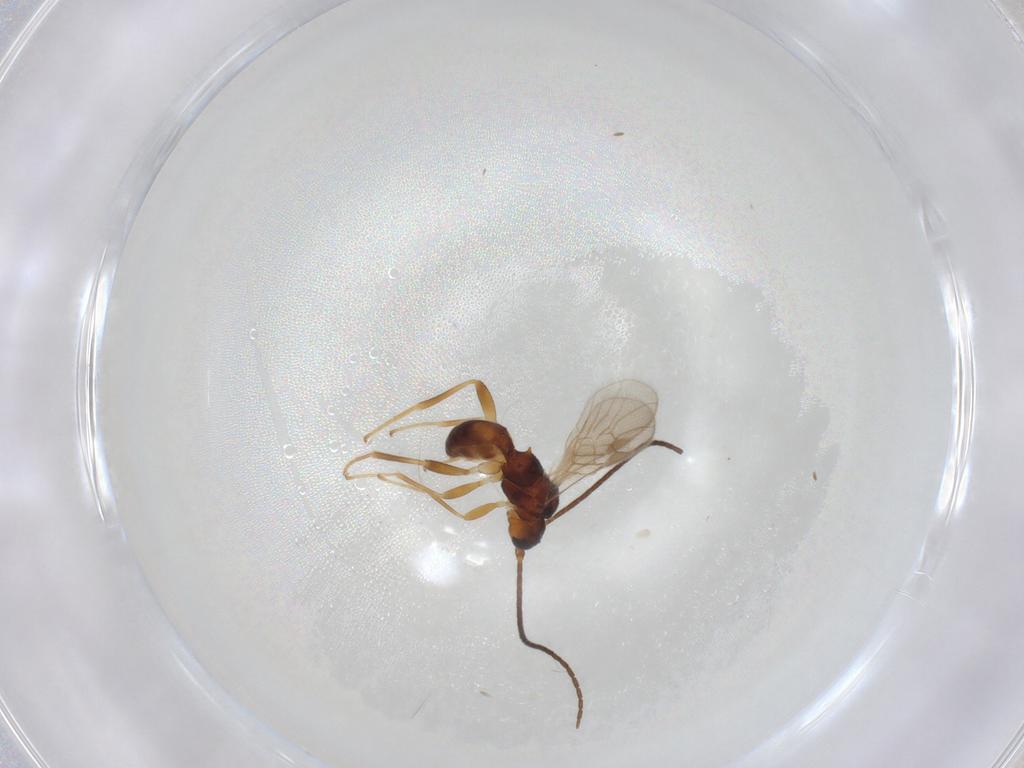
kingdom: Animalia
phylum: Arthropoda
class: Insecta
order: Hymenoptera
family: Braconidae
